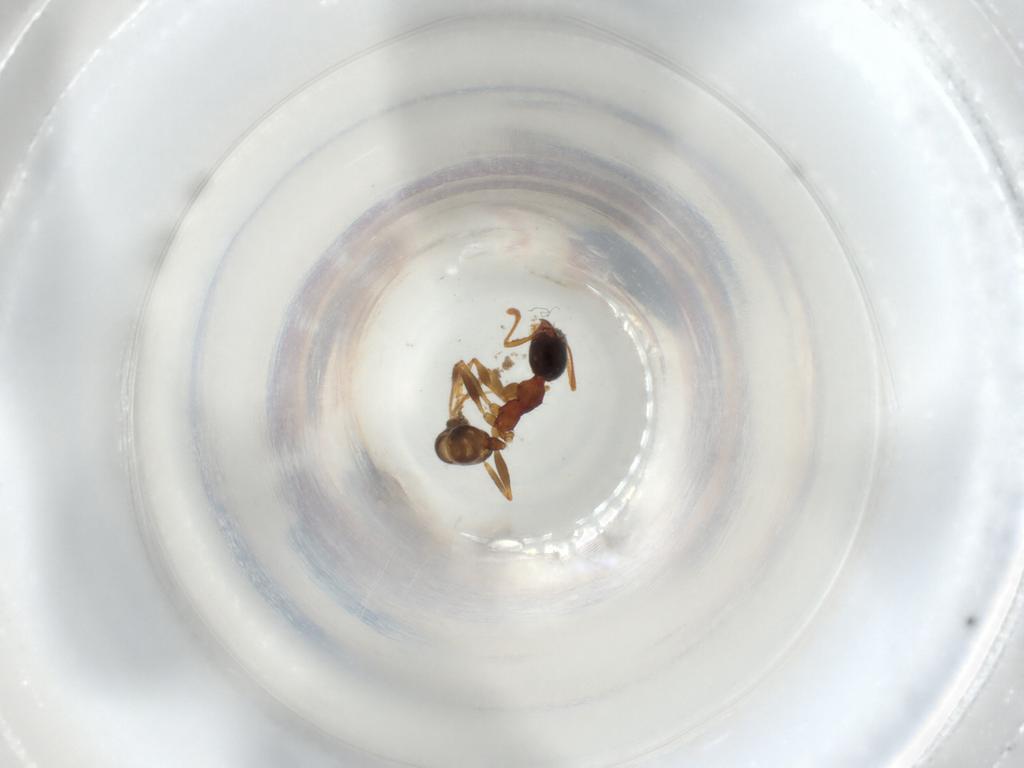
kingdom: Animalia
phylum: Arthropoda
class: Insecta
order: Hymenoptera
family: Formicidae
